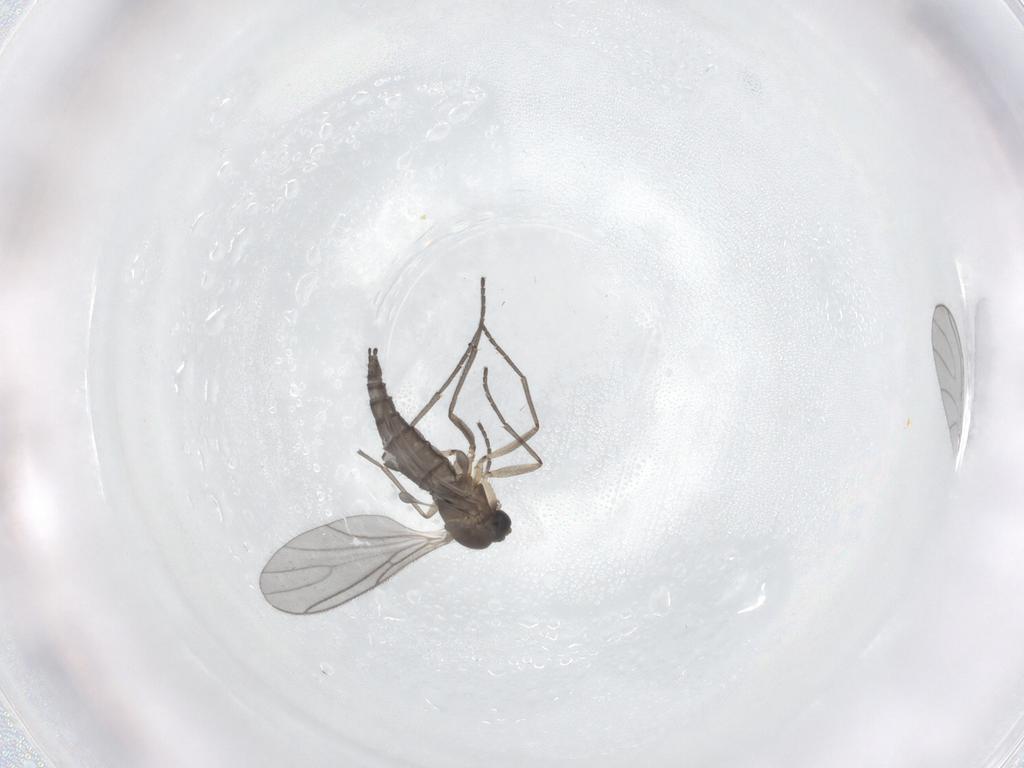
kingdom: Animalia
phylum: Arthropoda
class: Insecta
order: Diptera
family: Sciaridae
